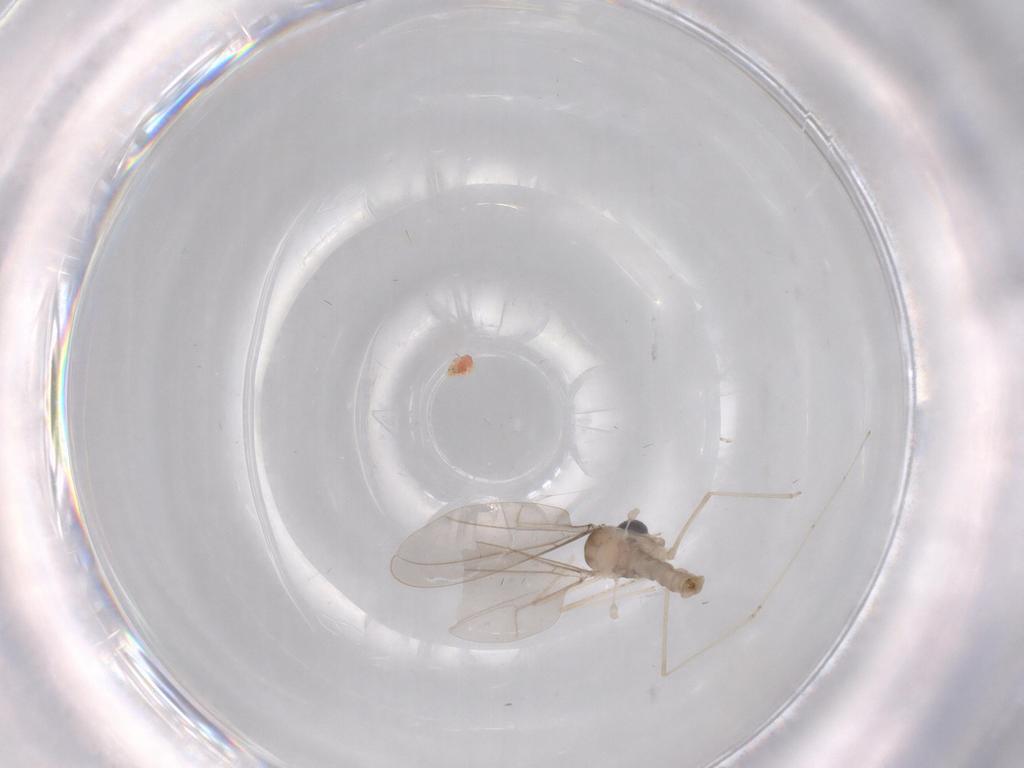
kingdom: Animalia
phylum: Arthropoda
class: Insecta
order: Diptera
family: Cecidomyiidae
